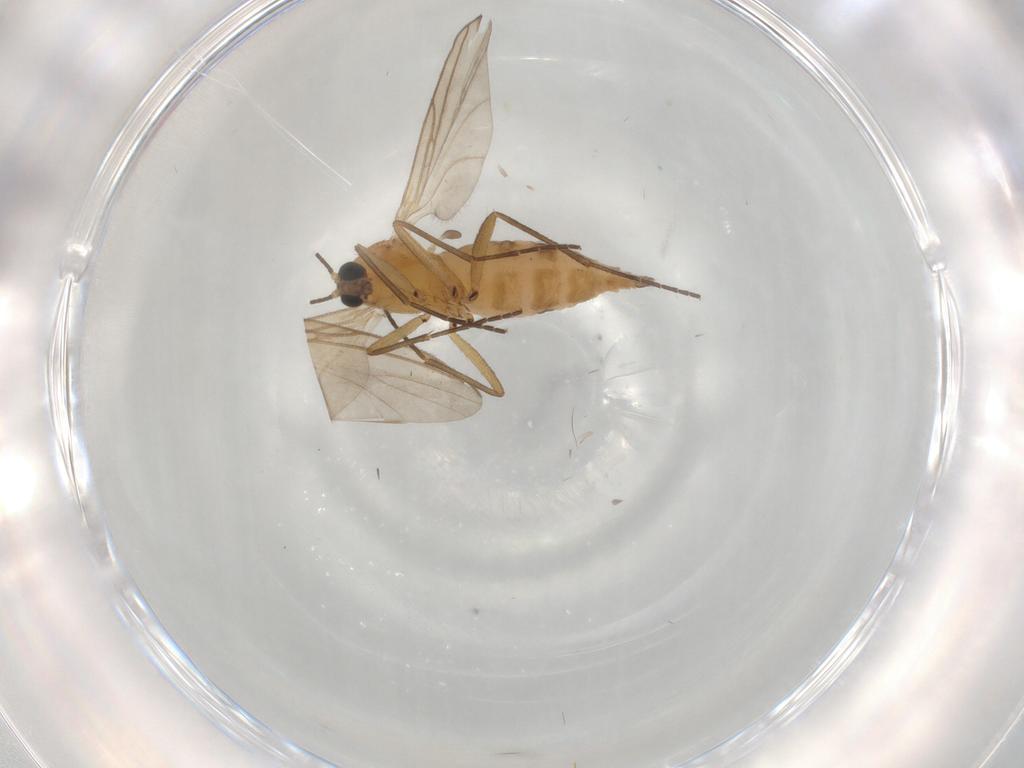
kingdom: Animalia
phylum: Arthropoda
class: Insecta
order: Diptera
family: Sciaridae
